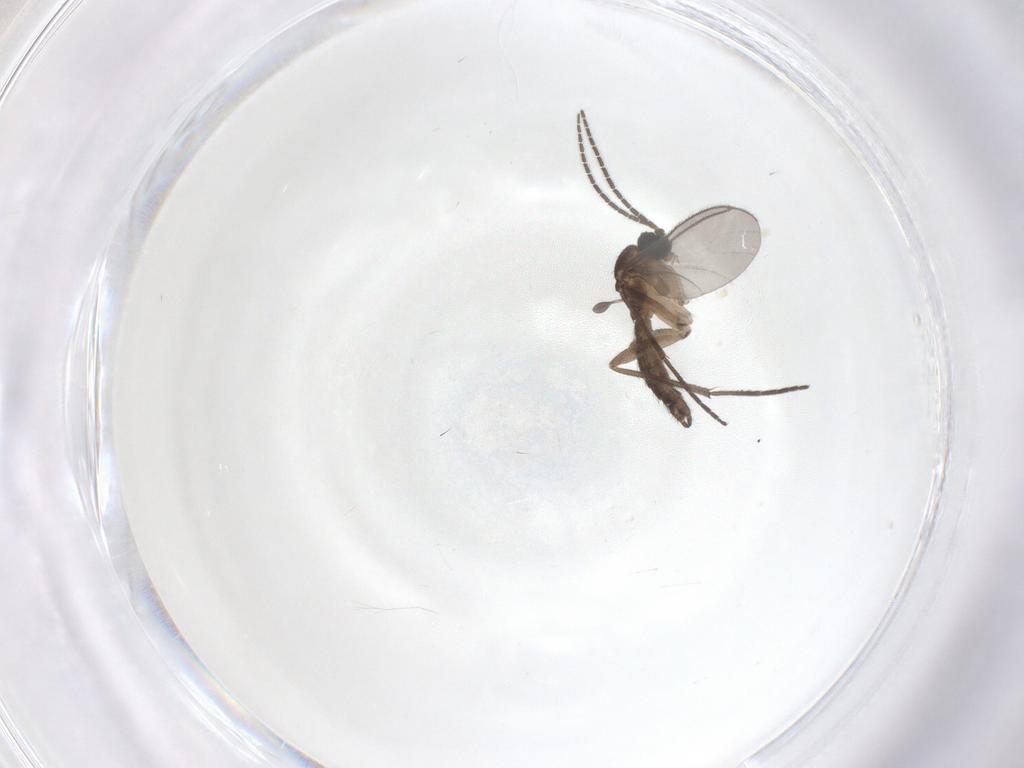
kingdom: Animalia
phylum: Arthropoda
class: Insecta
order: Diptera
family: Sciaridae
